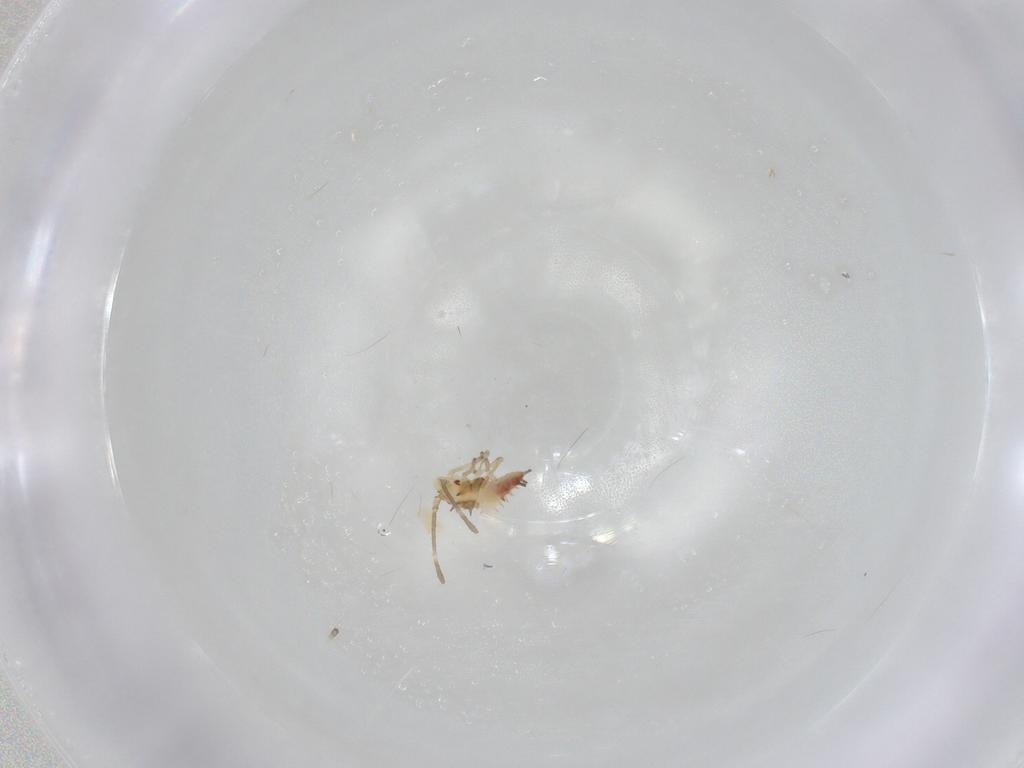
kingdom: Animalia
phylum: Arthropoda
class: Insecta
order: Hemiptera
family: Tingidae
